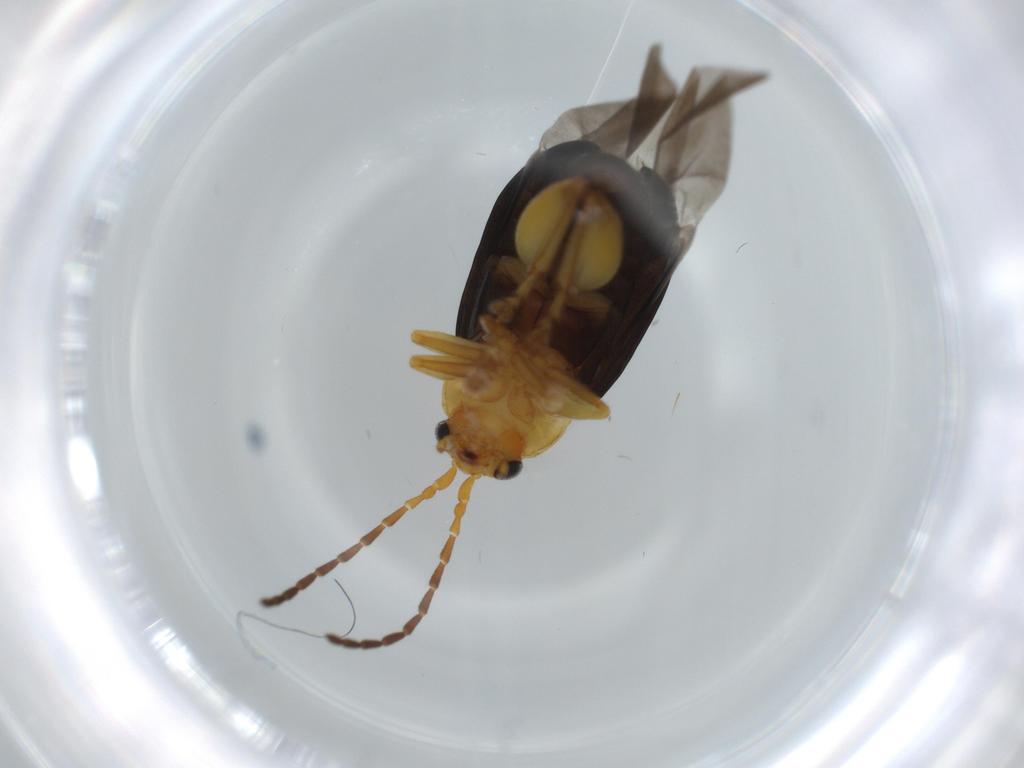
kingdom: Animalia
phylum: Arthropoda
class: Insecta
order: Coleoptera
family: Chrysomelidae
